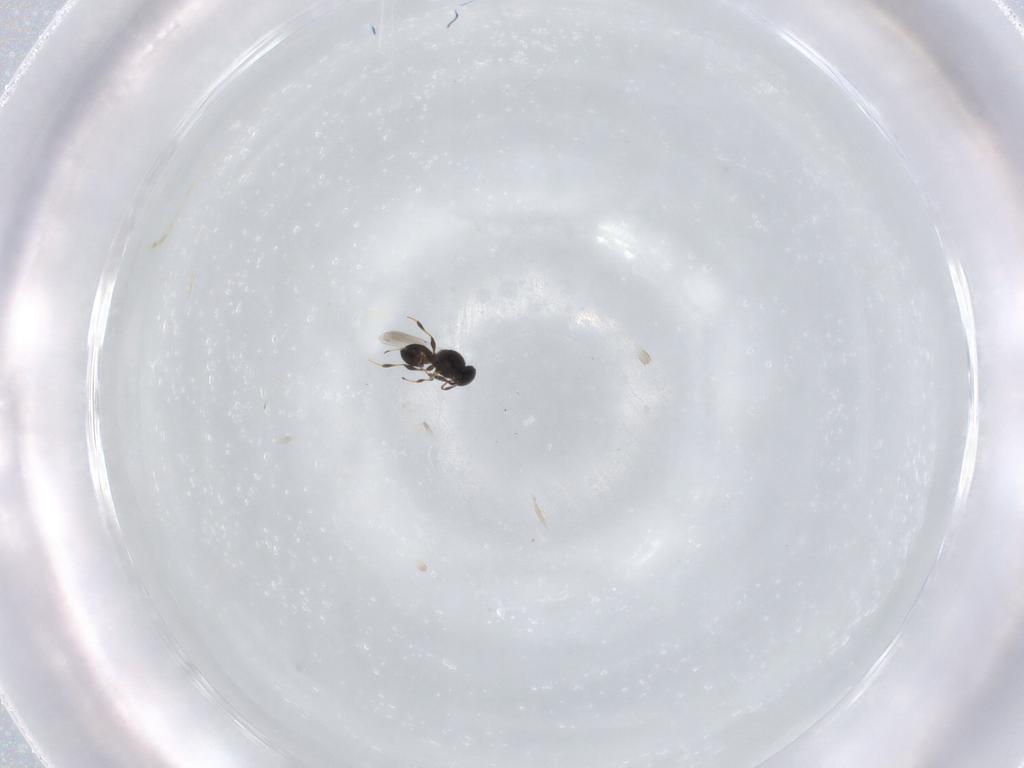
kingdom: Animalia
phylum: Arthropoda
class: Insecta
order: Hymenoptera
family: Platygastridae
